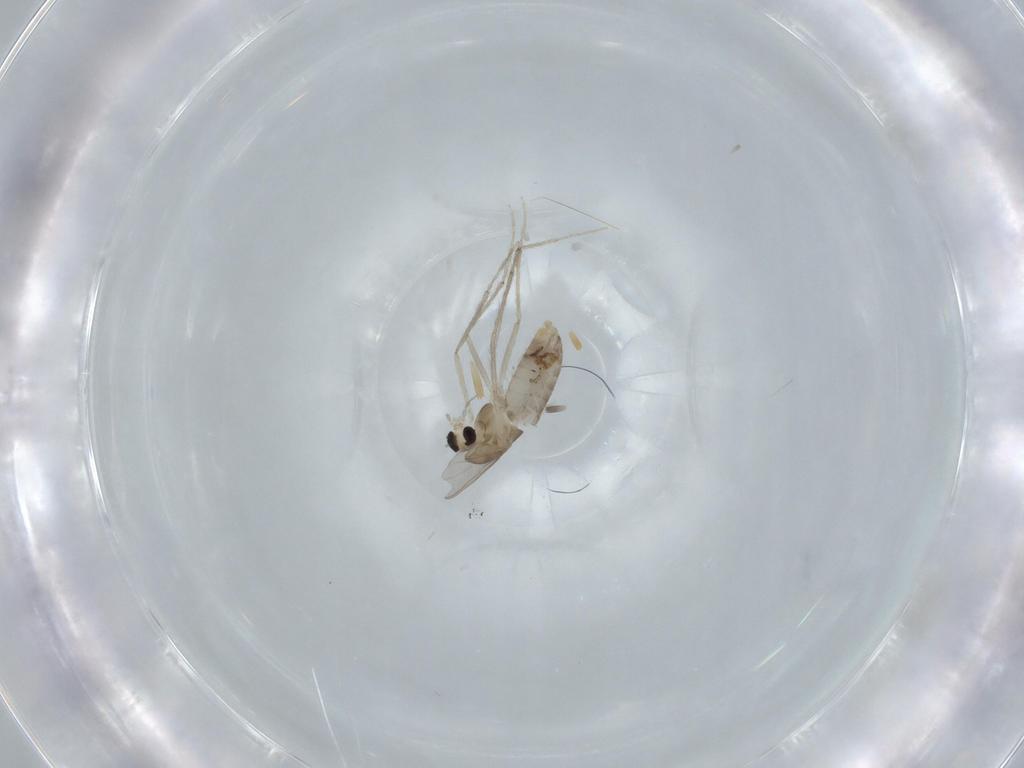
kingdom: Animalia
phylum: Arthropoda
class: Insecta
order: Diptera
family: Chironomidae
